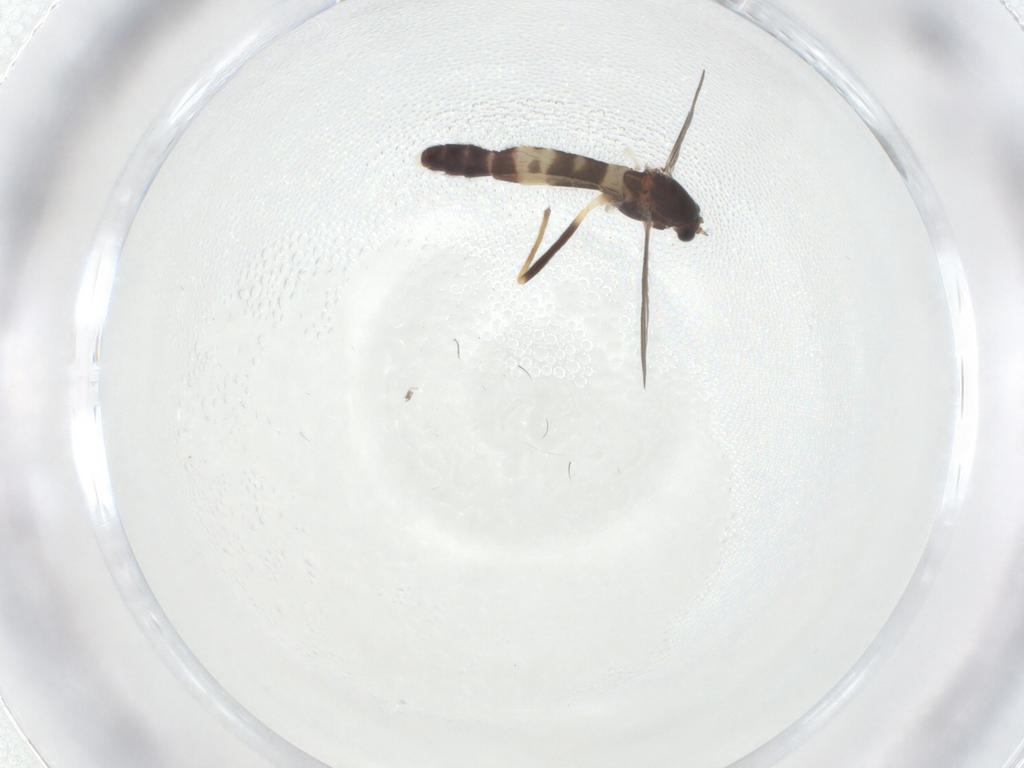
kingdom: Animalia
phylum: Arthropoda
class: Insecta
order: Diptera
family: Chironomidae
